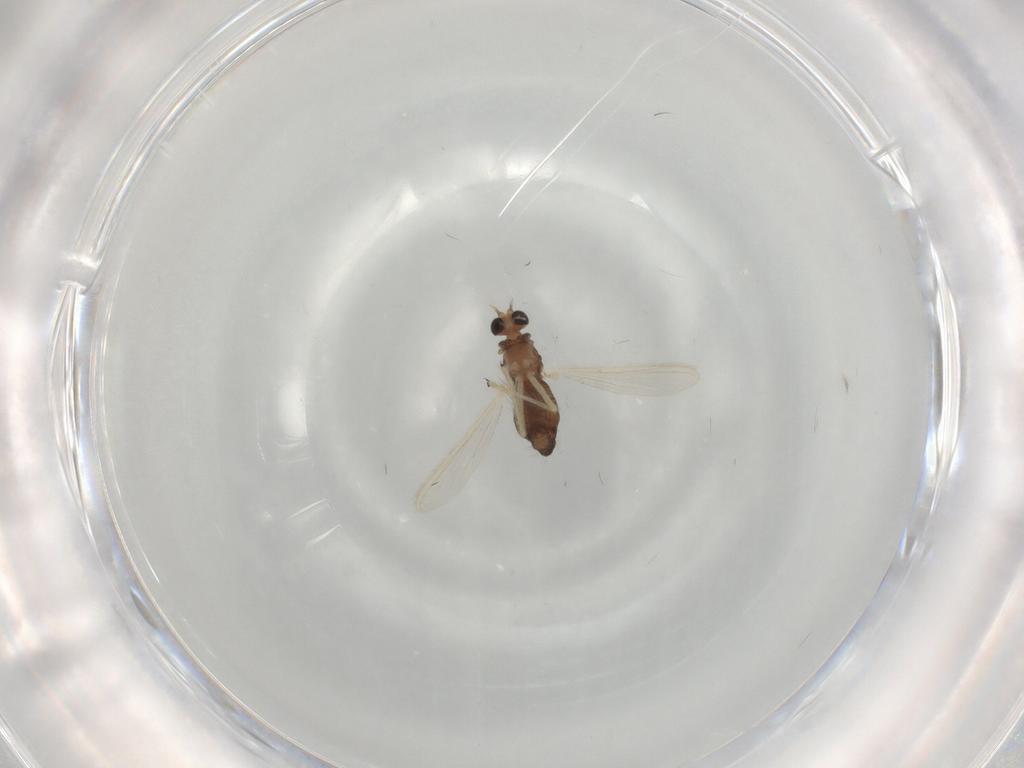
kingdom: Animalia
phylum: Arthropoda
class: Insecta
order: Diptera
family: Chironomidae
